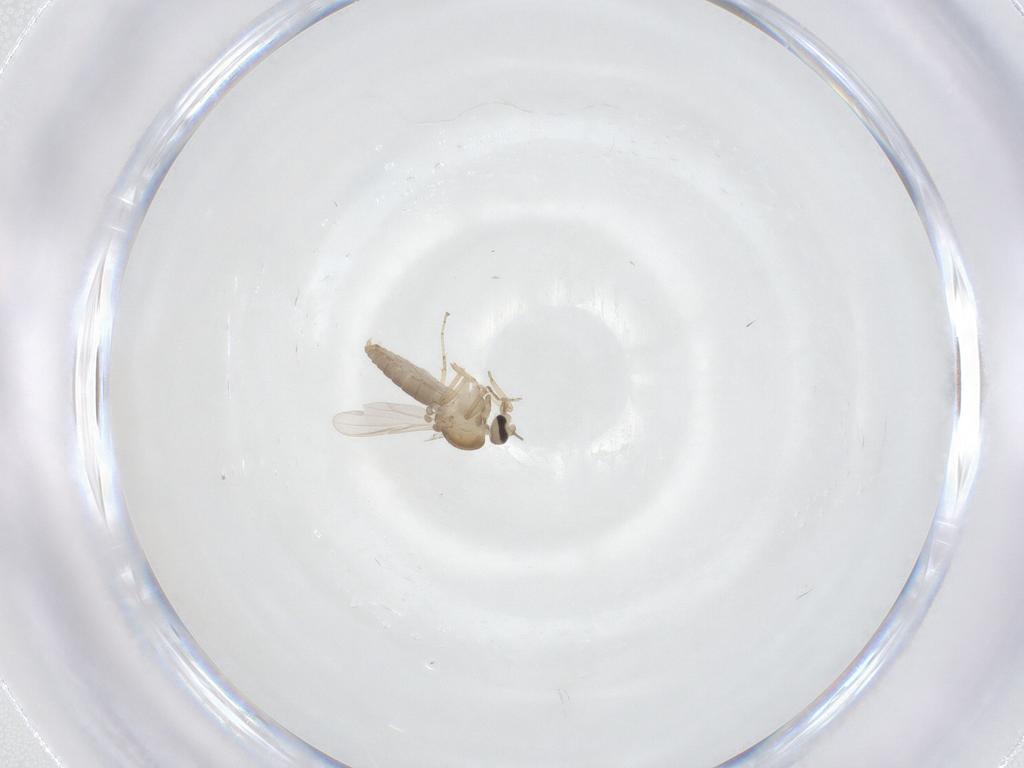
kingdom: Animalia
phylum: Arthropoda
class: Insecta
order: Diptera
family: Ceratopogonidae
